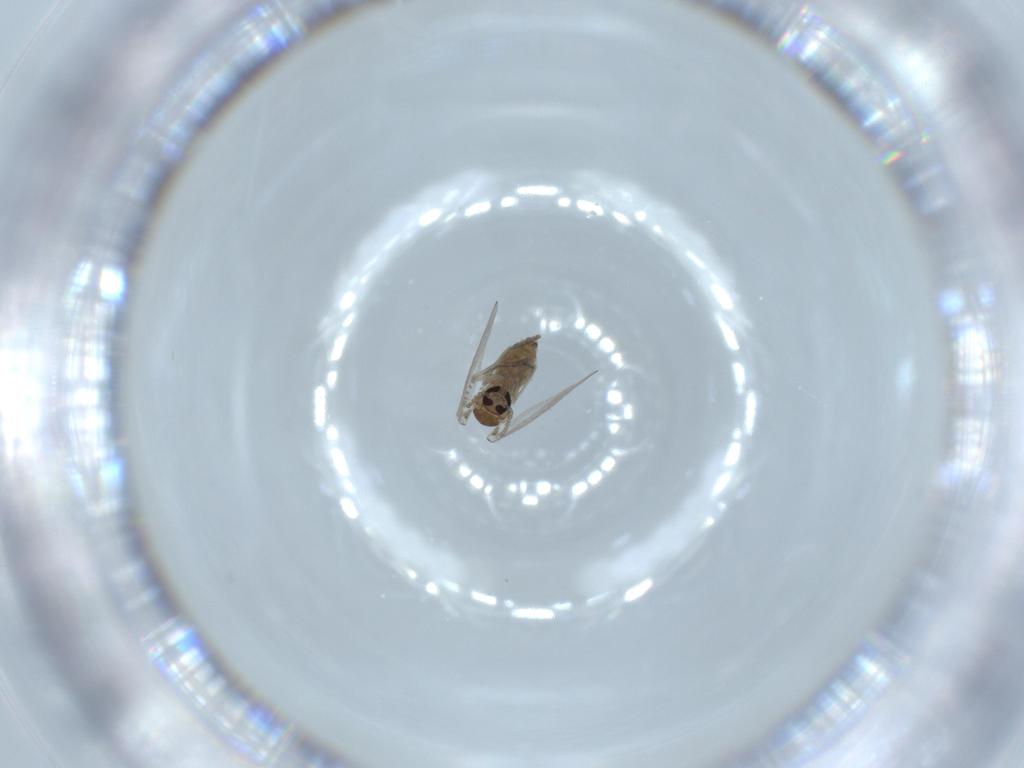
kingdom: Animalia
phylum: Arthropoda
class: Insecta
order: Diptera
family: Psychodidae
